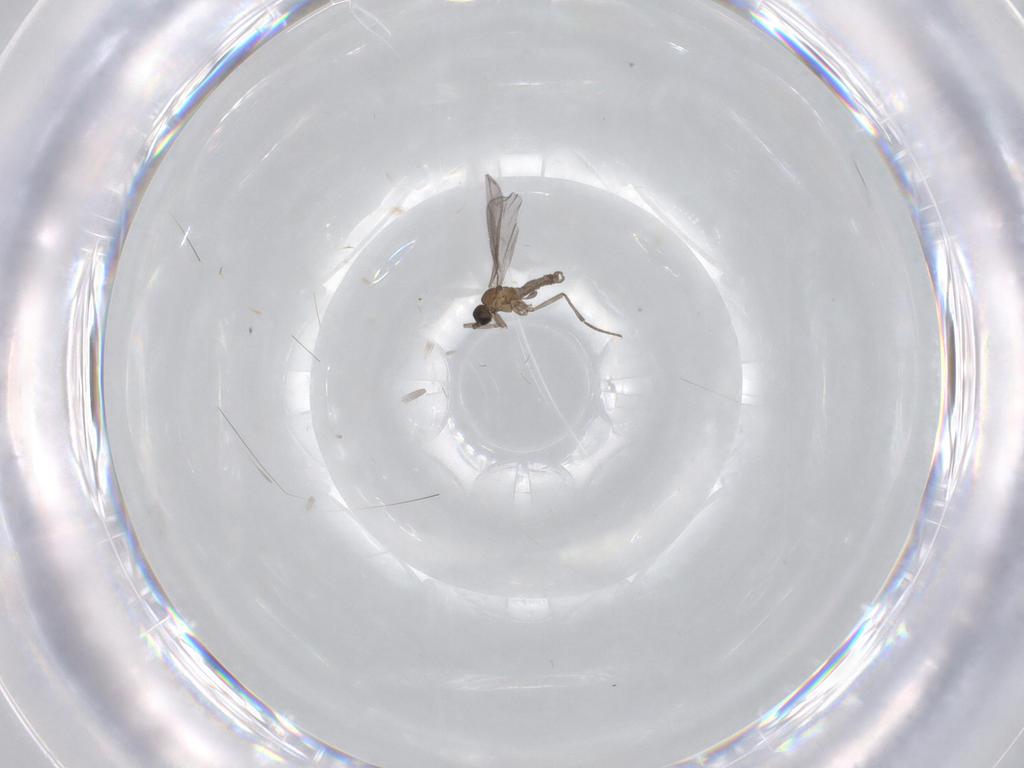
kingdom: Animalia
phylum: Arthropoda
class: Insecta
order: Diptera
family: Sciaridae
